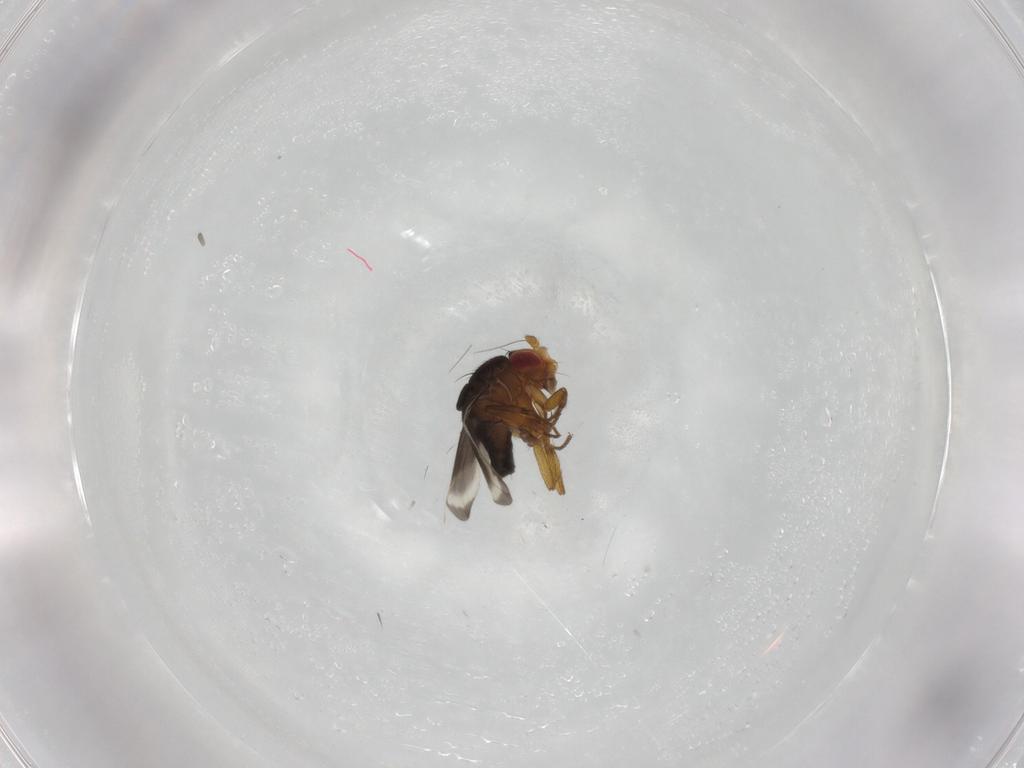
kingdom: Animalia
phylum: Arthropoda
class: Insecta
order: Diptera
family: Sphaeroceridae
